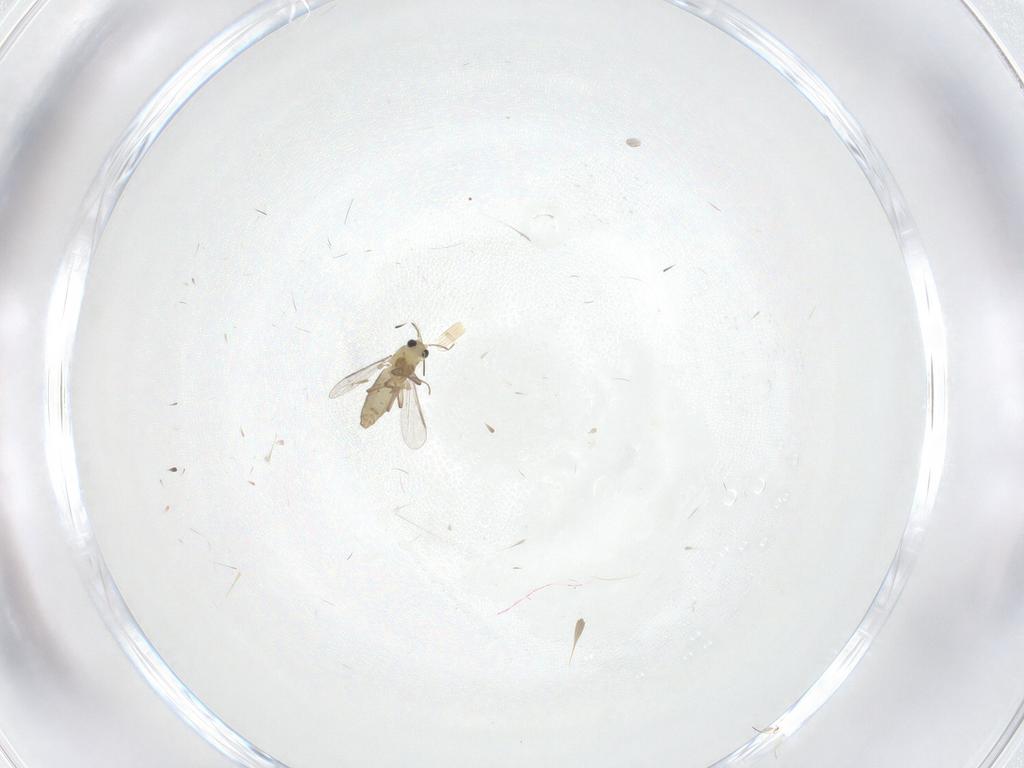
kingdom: Animalia
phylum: Arthropoda
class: Insecta
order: Diptera
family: Chironomidae
